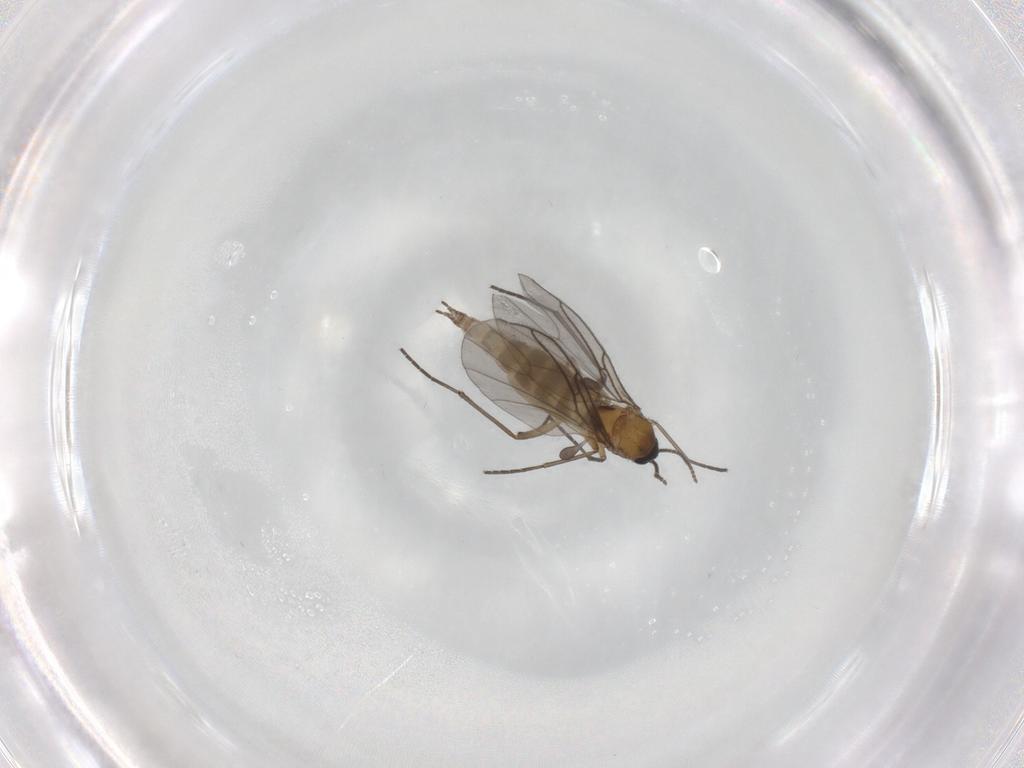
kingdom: Animalia
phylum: Arthropoda
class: Insecta
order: Diptera
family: Sciaridae
